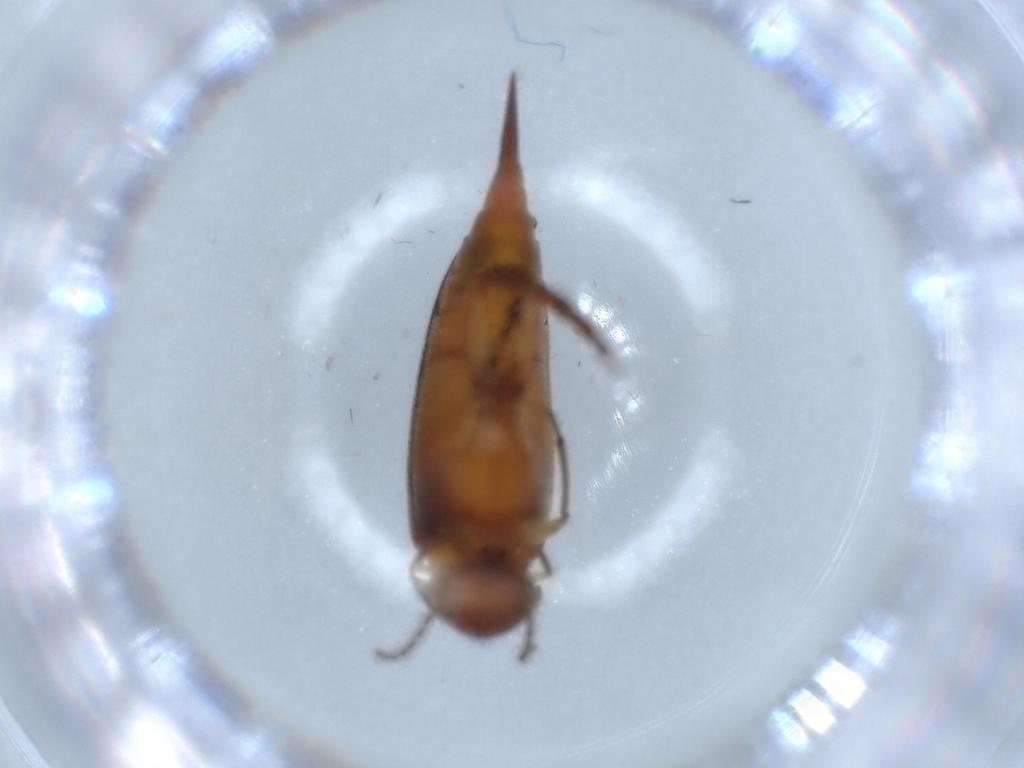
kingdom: Animalia
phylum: Arthropoda
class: Insecta
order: Coleoptera
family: Mordellidae
